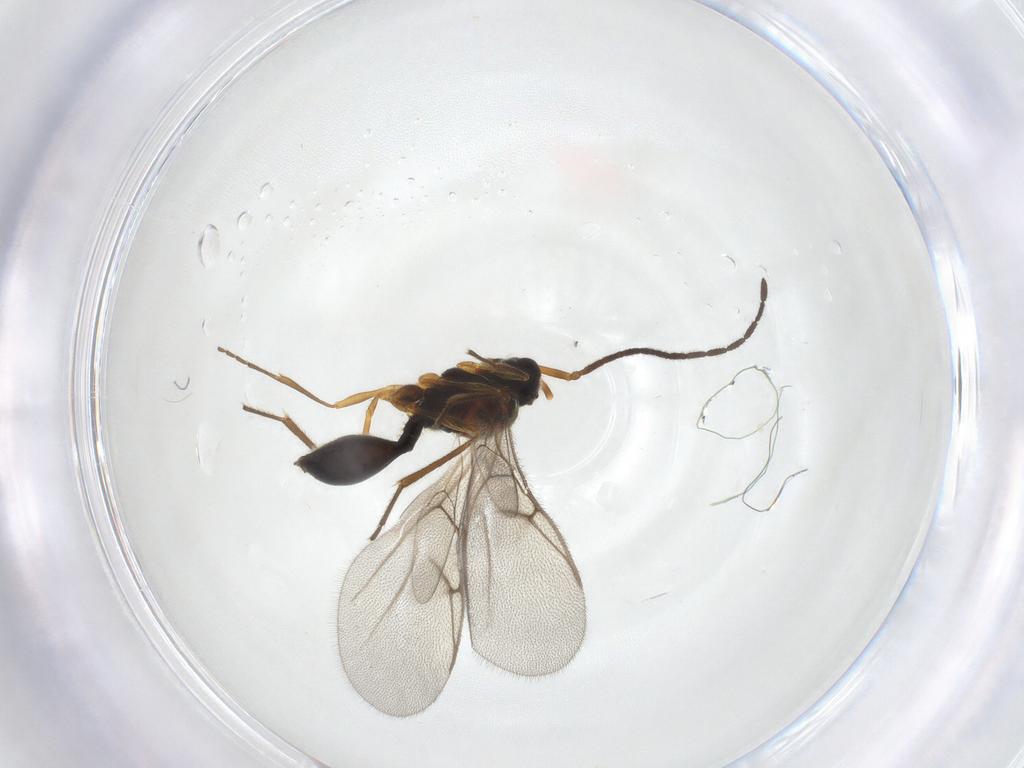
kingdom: Animalia
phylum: Arthropoda
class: Insecta
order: Hymenoptera
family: Diapriidae
